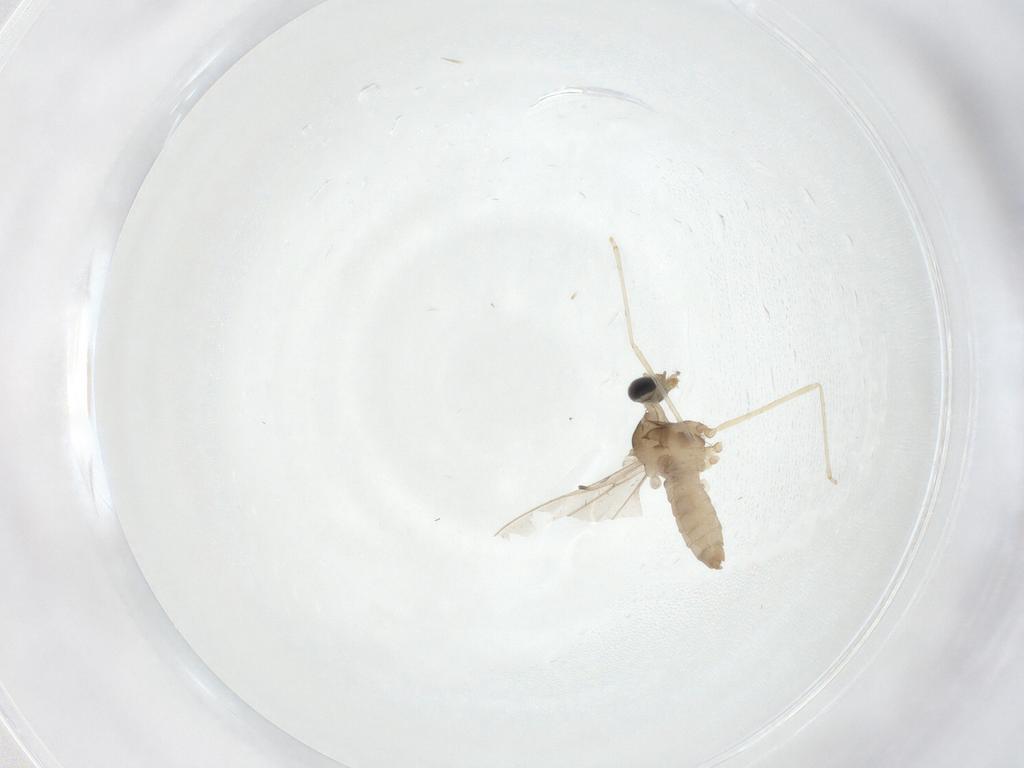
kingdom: Animalia
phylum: Arthropoda
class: Insecta
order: Diptera
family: Cecidomyiidae
